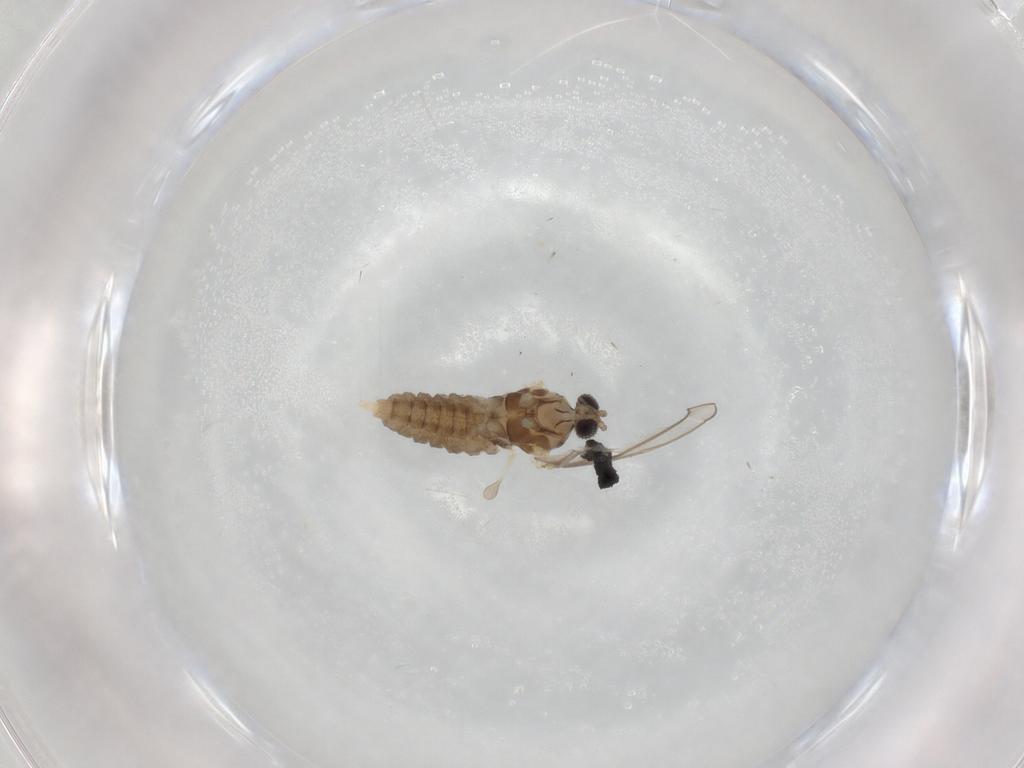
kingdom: Animalia
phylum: Arthropoda
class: Insecta
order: Diptera
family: Cecidomyiidae
